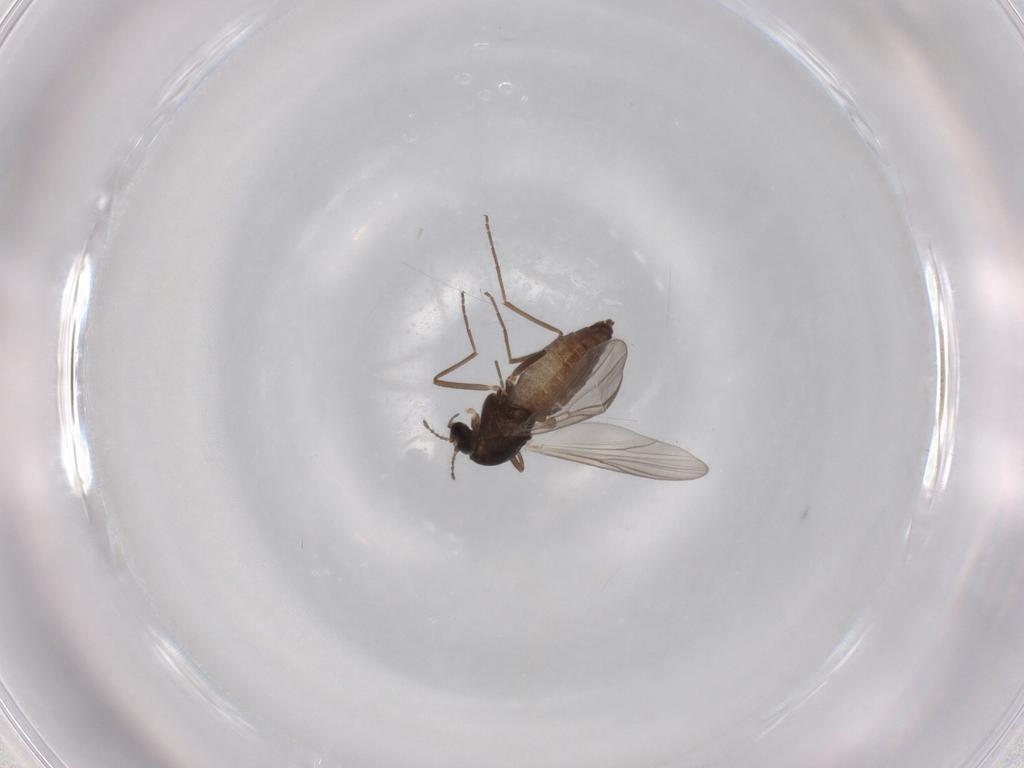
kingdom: Animalia
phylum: Arthropoda
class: Insecta
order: Diptera
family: Chironomidae
